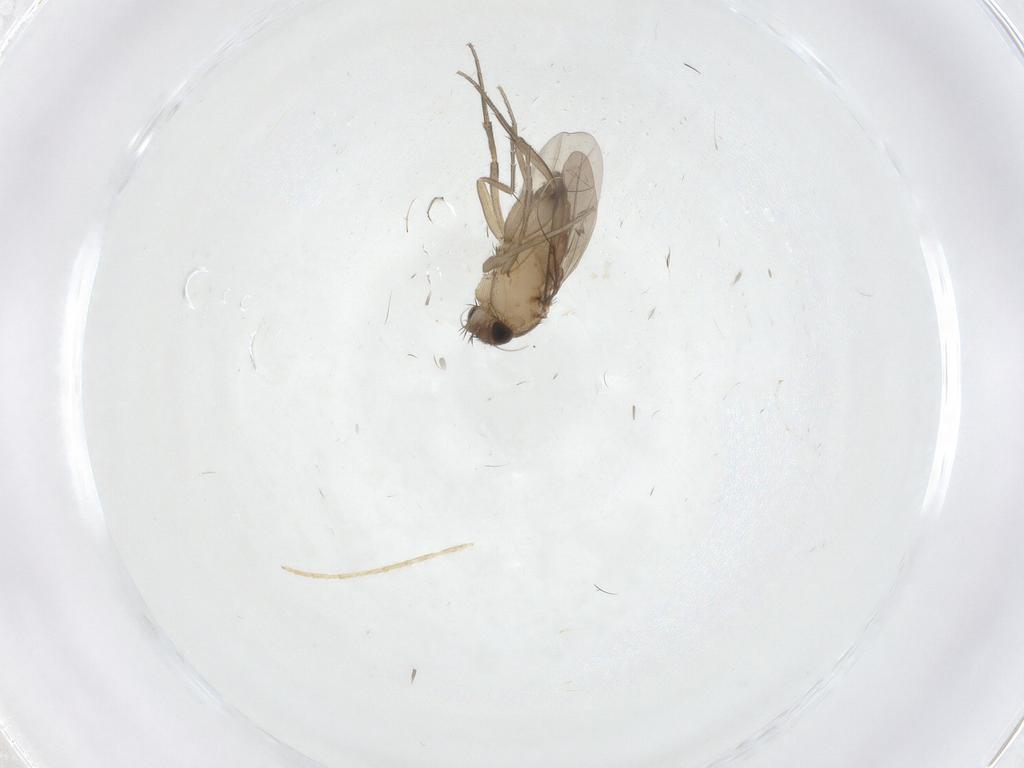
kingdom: Animalia
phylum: Arthropoda
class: Insecta
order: Diptera
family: Phoridae
